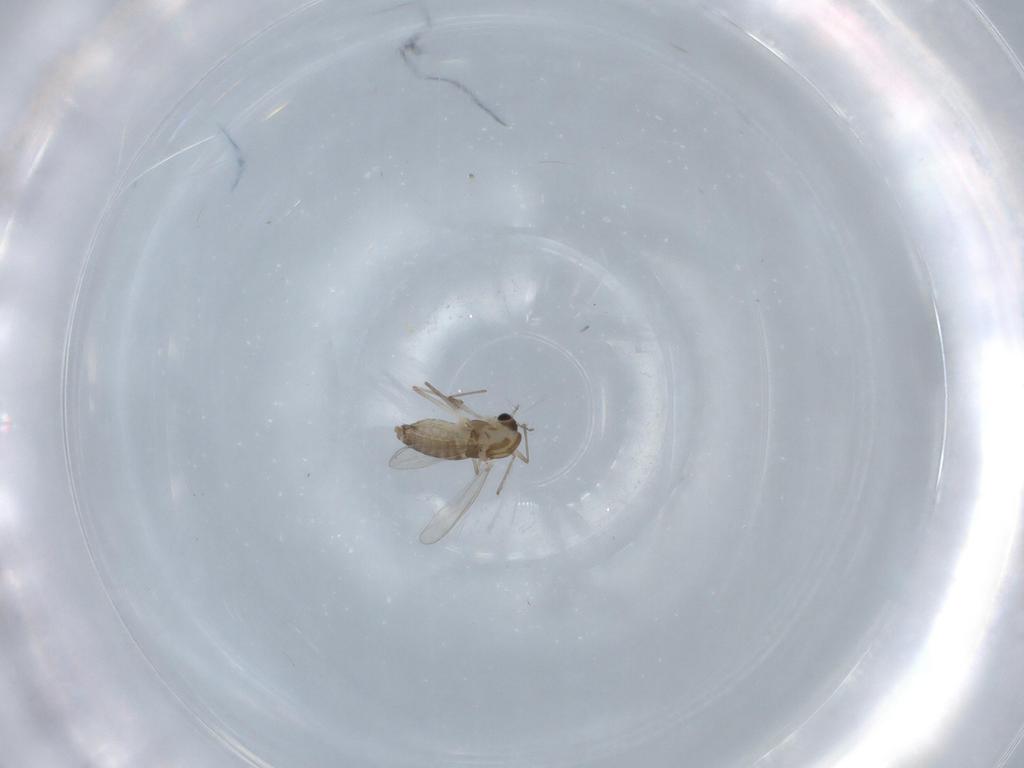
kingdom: Animalia
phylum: Arthropoda
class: Insecta
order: Diptera
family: Chironomidae
